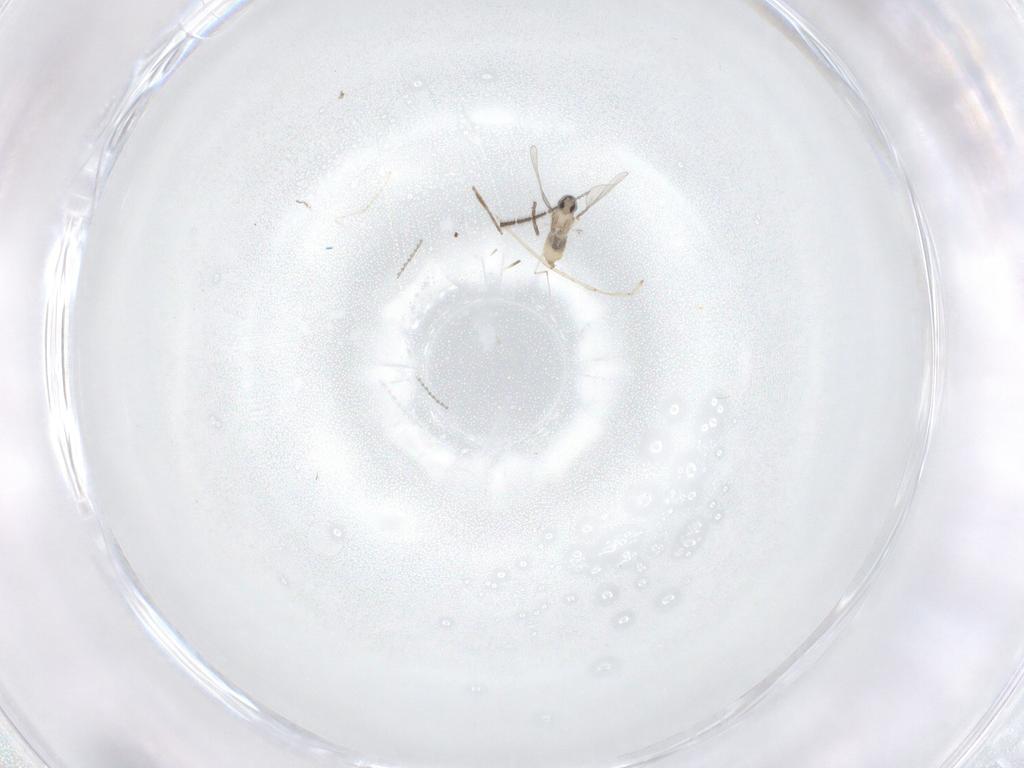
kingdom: Animalia
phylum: Arthropoda
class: Insecta
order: Diptera
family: Cecidomyiidae
